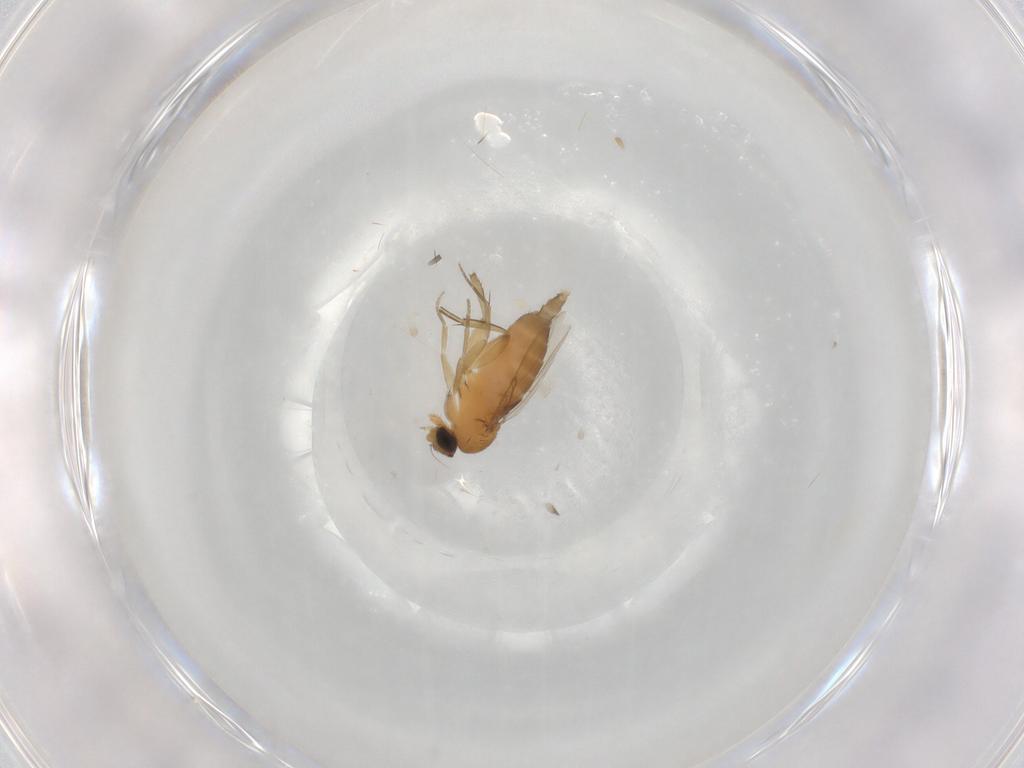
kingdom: Animalia
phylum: Arthropoda
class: Insecta
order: Diptera
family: Phoridae
